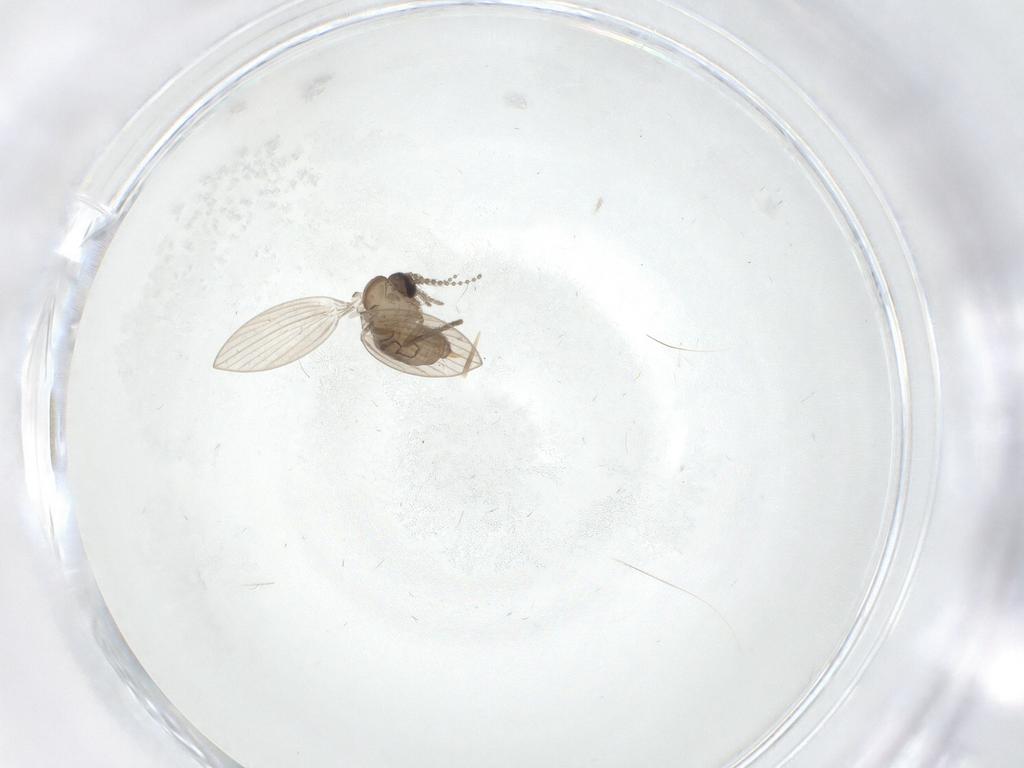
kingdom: Animalia
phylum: Arthropoda
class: Insecta
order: Diptera
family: Psychodidae
